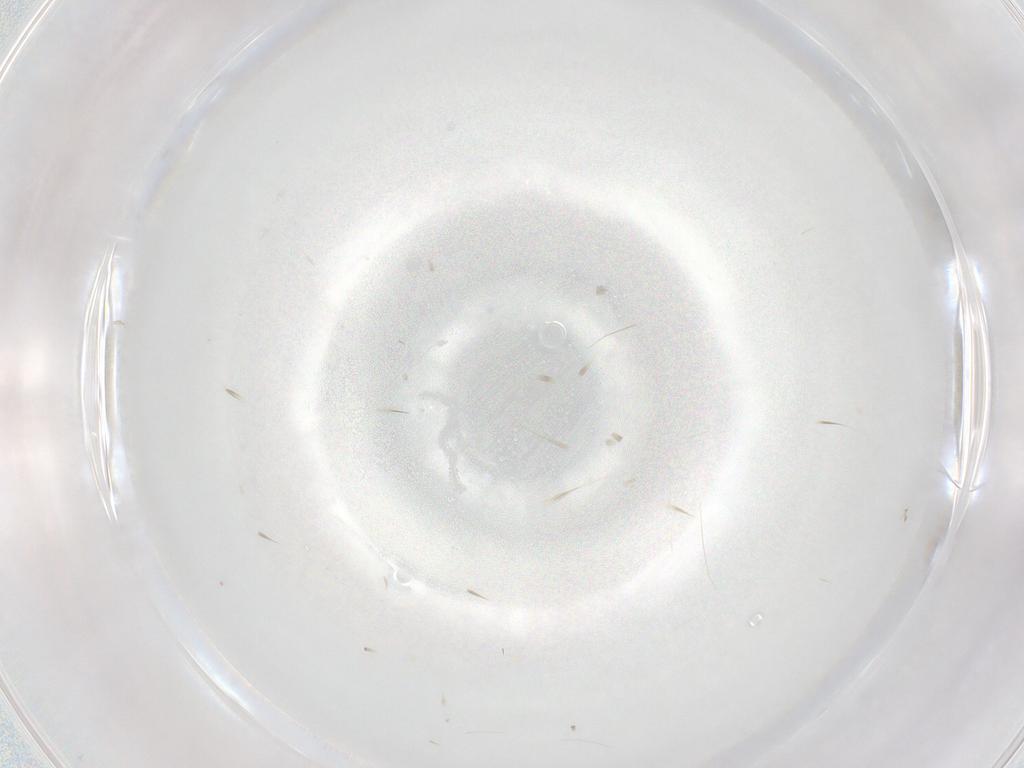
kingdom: Animalia
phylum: Arthropoda
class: Insecta
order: Diptera
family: Ceratopogonidae
